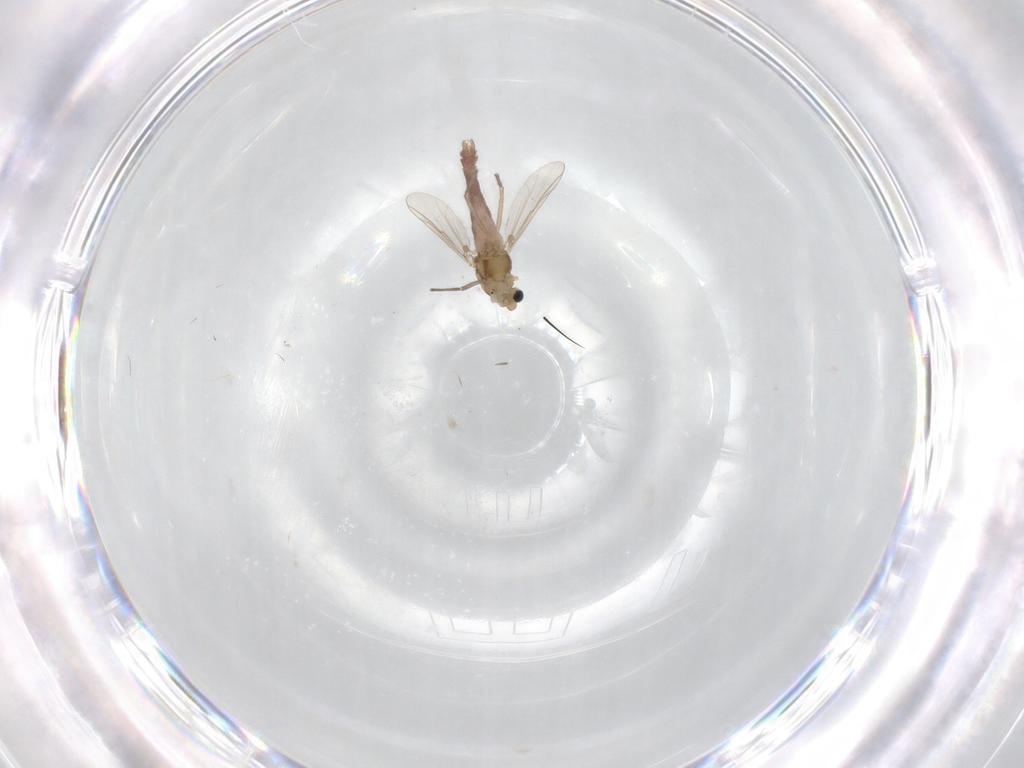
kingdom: Animalia
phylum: Arthropoda
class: Insecta
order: Diptera
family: Chironomidae
